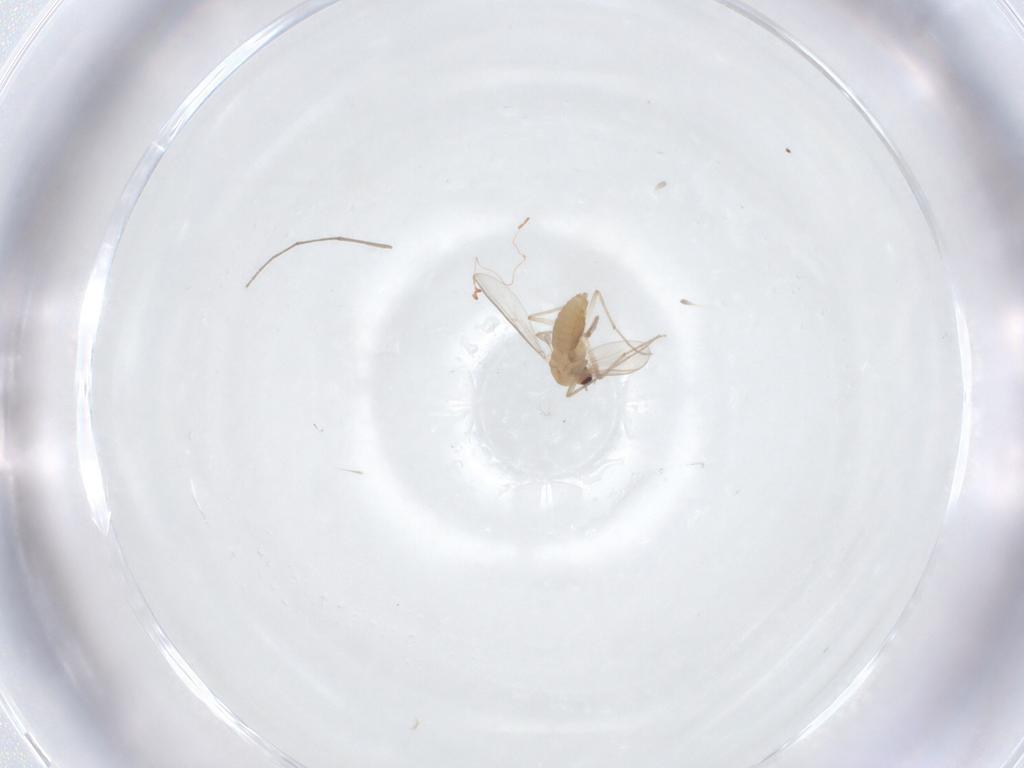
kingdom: Animalia
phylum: Arthropoda
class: Insecta
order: Diptera
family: Chironomidae
